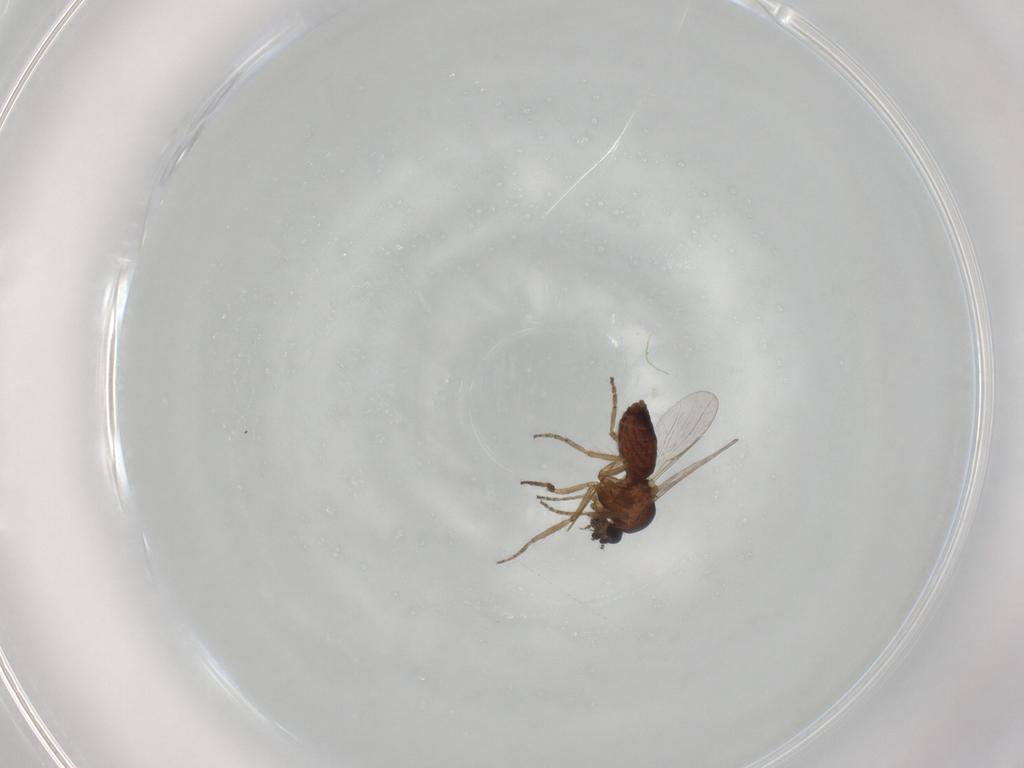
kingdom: Animalia
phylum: Arthropoda
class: Insecta
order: Diptera
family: Ceratopogonidae
